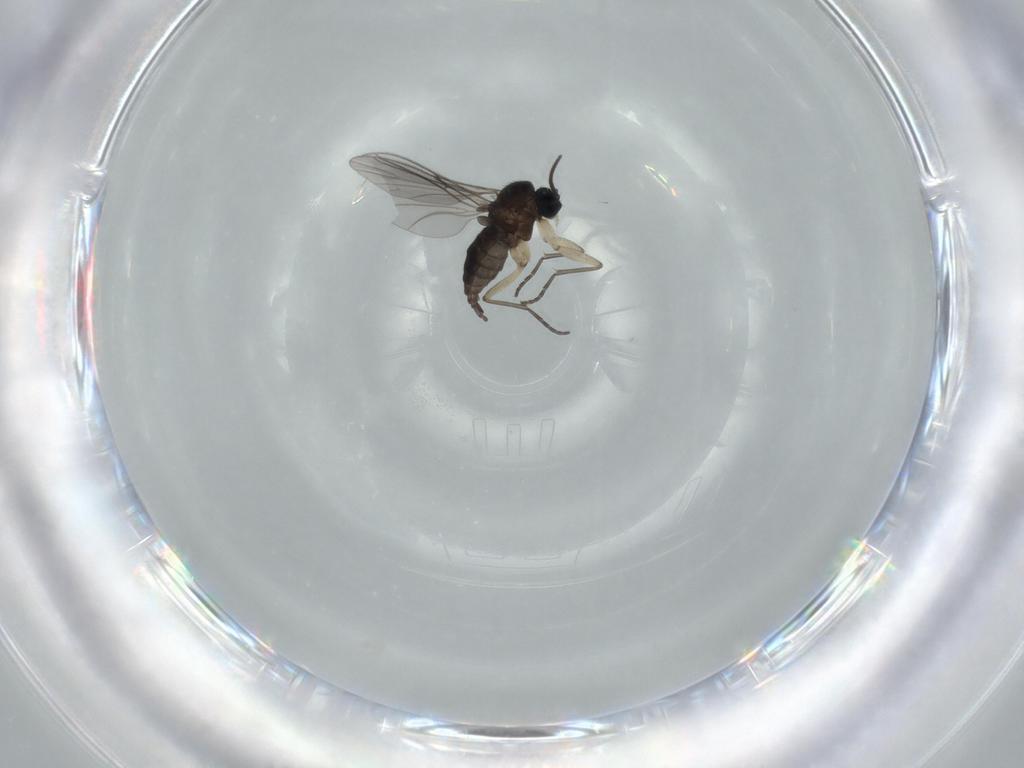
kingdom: Animalia
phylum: Arthropoda
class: Insecta
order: Diptera
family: Sciaridae
